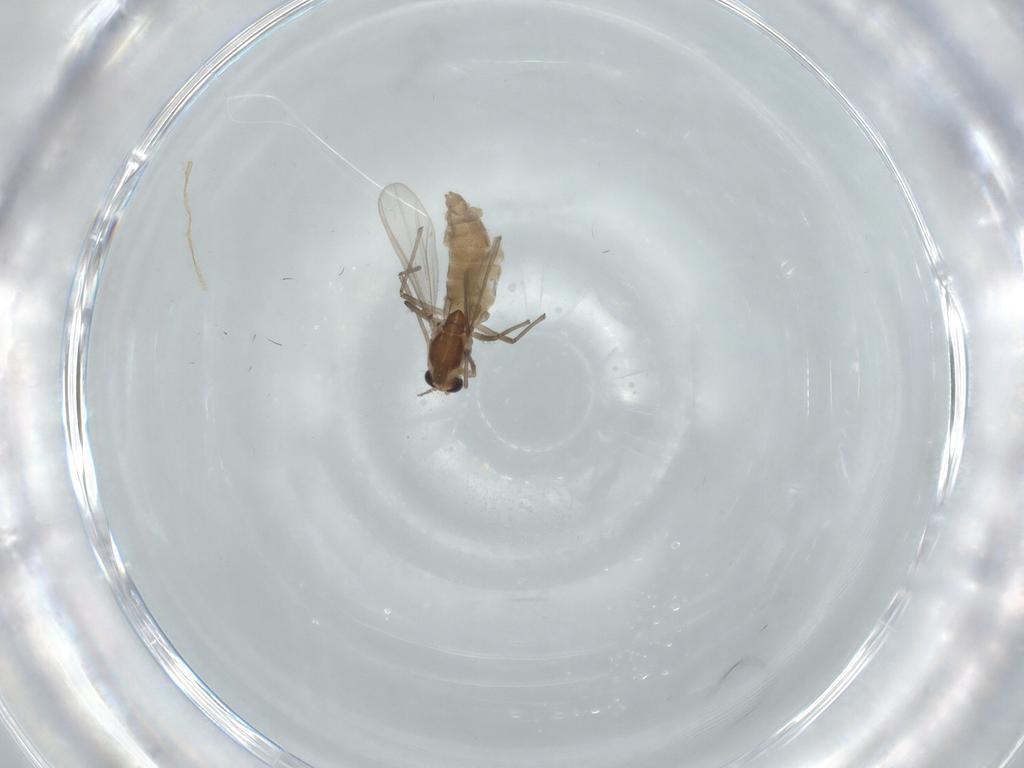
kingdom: Animalia
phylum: Arthropoda
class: Insecta
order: Diptera
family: Chironomidae
